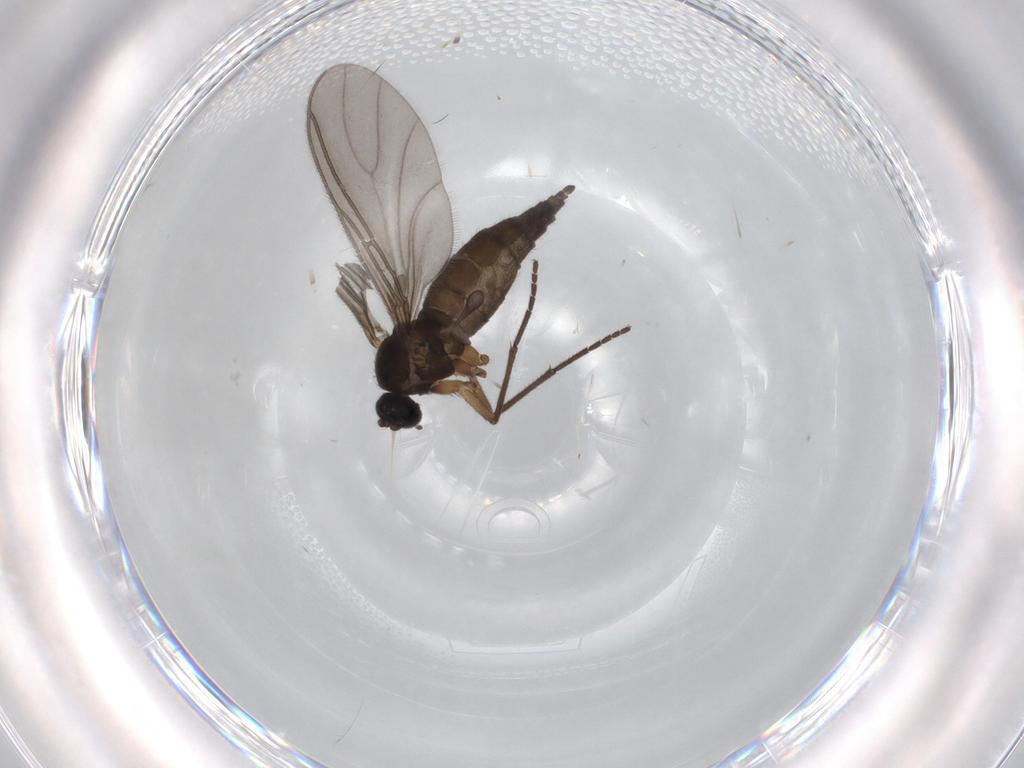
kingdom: Animalia
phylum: Arthropoda
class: Insecta
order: Diptera
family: Sciaridae
